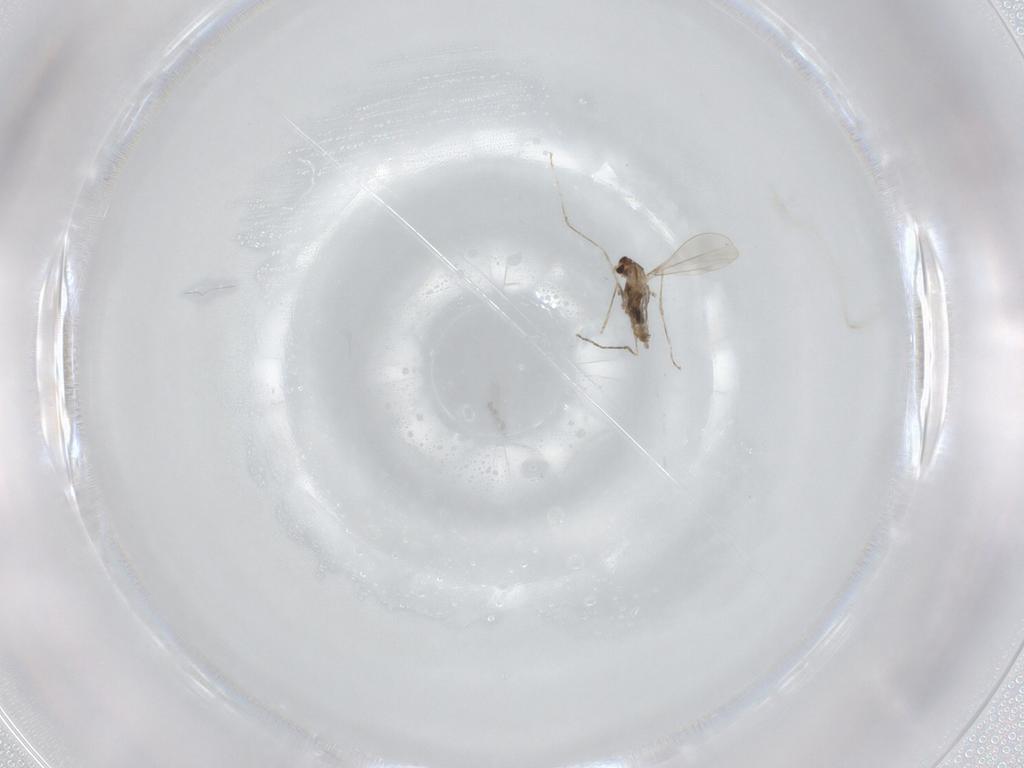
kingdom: Animalia
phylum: Arthropoda
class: Insecta
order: Diptera
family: Cecidomyiidae
